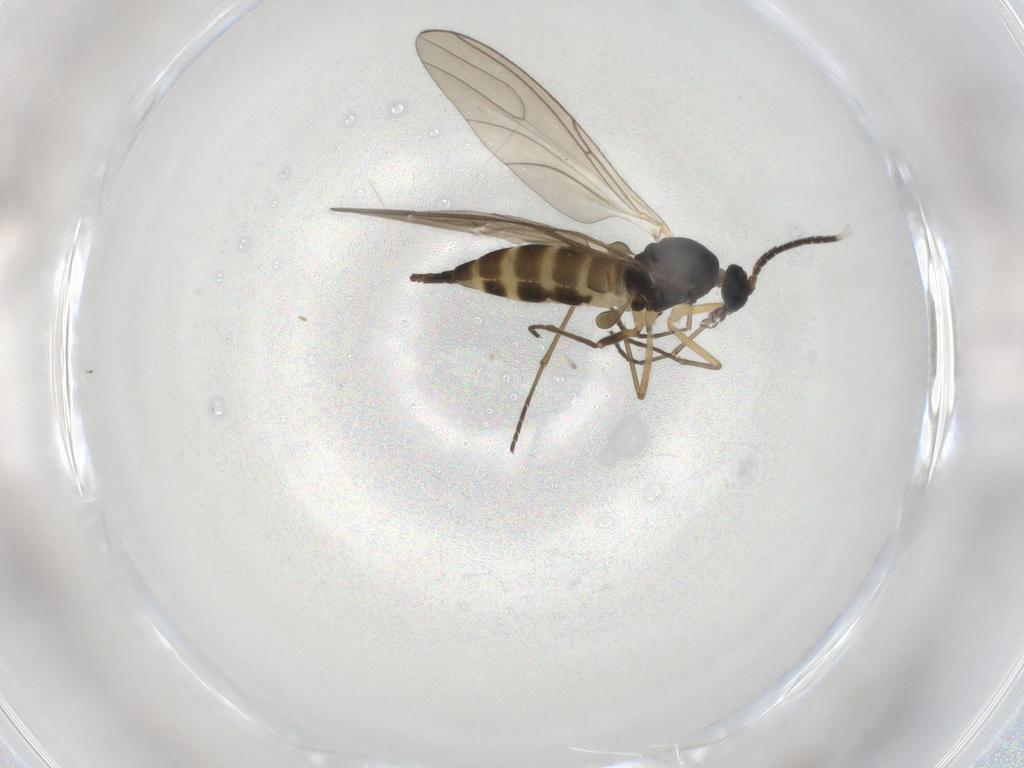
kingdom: Animalia
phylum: Arthropoda
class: Insecta
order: Diptera
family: Sciaridae
